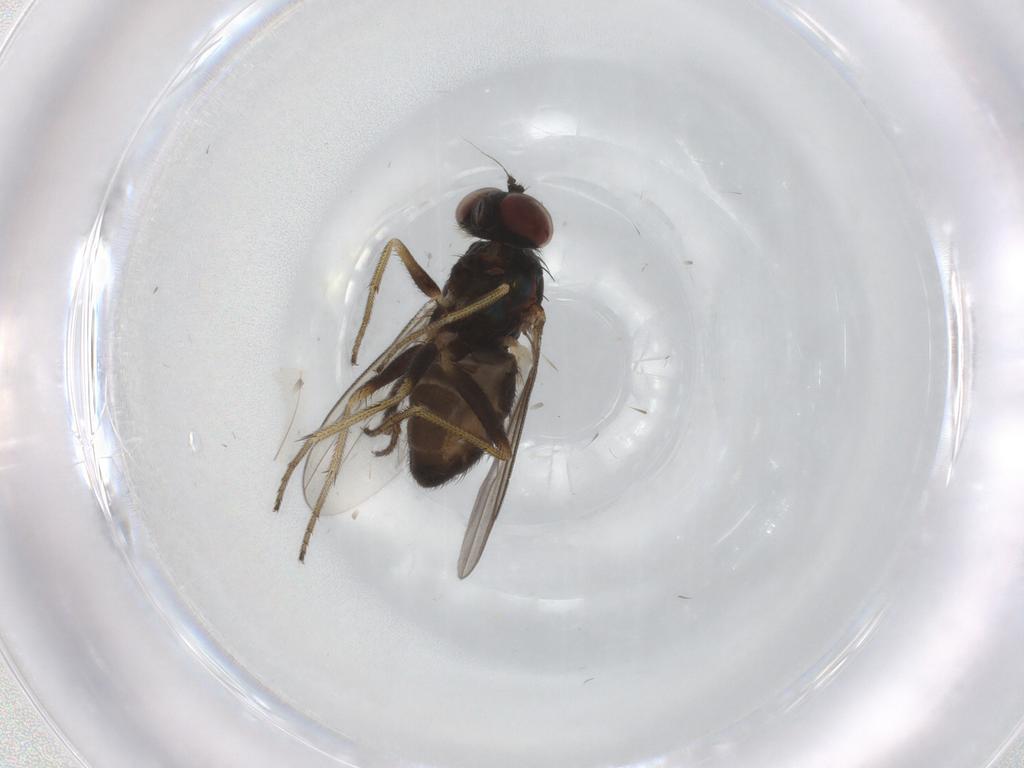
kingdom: Animalia
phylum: Arthropoda
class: Insecta
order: Diptera
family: Sciaridae
